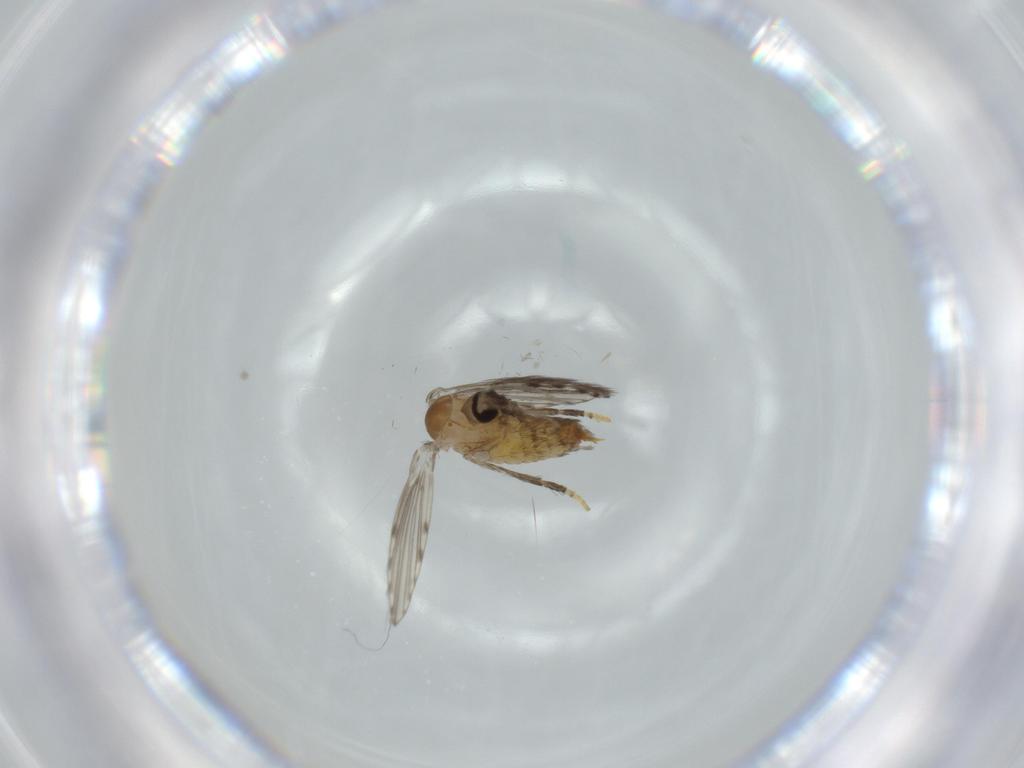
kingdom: Animalia
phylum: Arthropoda
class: Insecta
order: Diptera
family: Psychodidae
